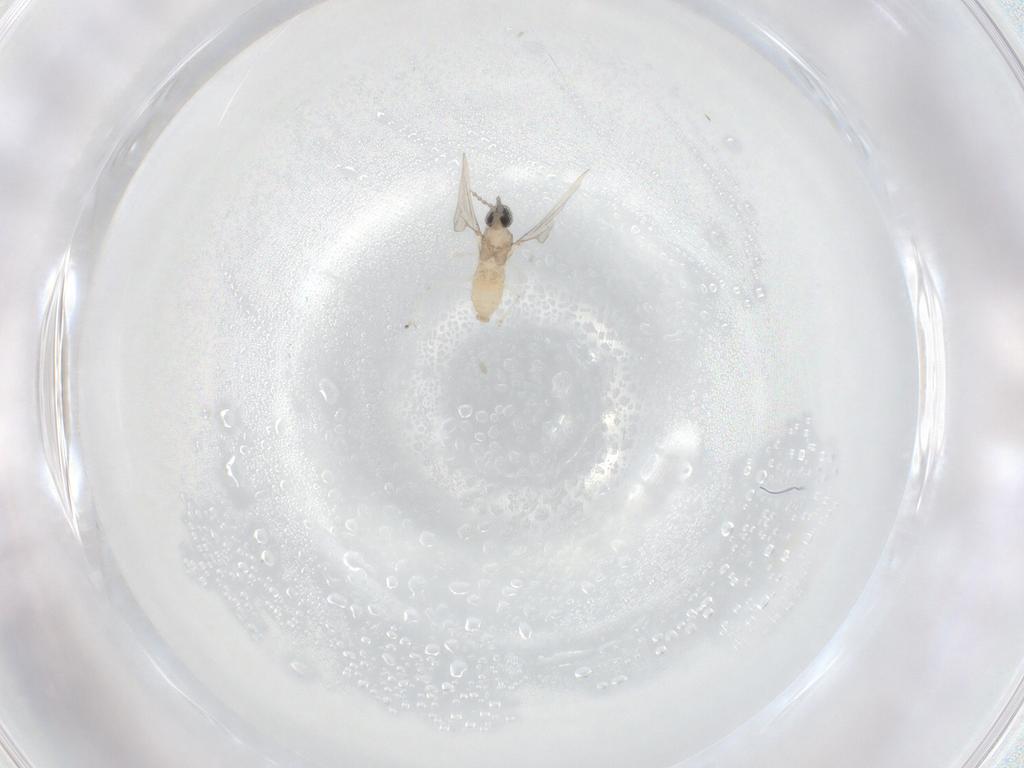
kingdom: Animalia
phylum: Arthropoda
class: Insecta
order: Diptera
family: Cecidomyiidae
